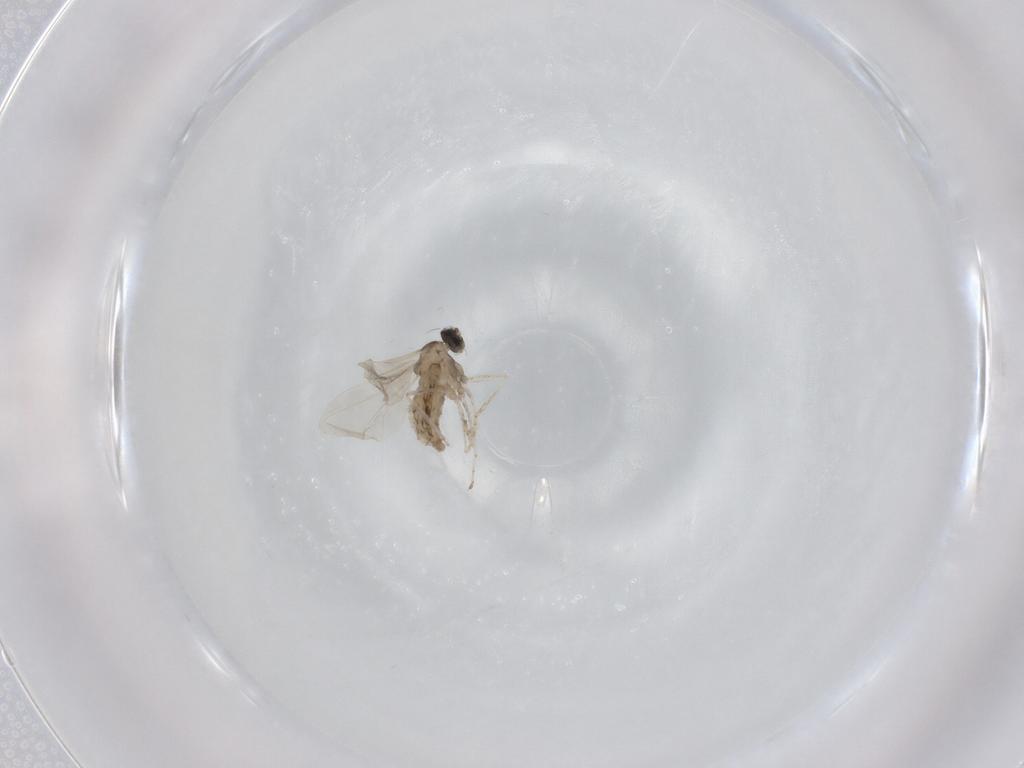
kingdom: Animalia
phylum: Arthropoda
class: Insecta
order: Diptera
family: Cecidomyiidae
